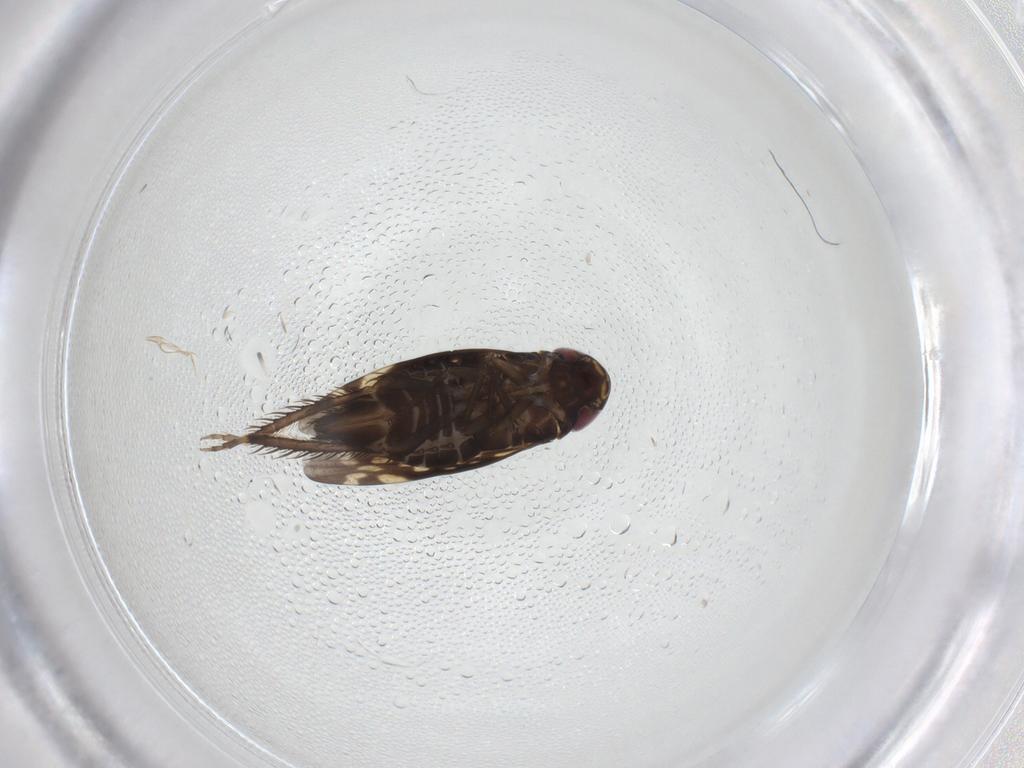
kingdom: Animalia
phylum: Arthropoda
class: Insecta
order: Hemiptera
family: Cicadellidae
